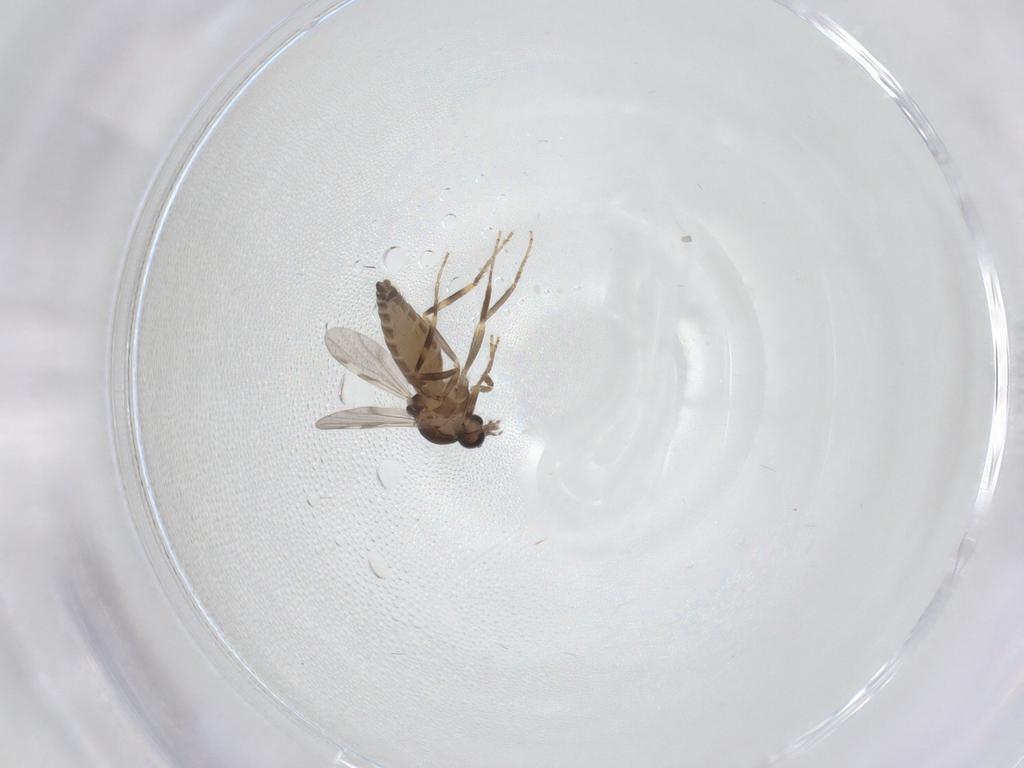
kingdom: Animalia
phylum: Arthropoda
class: Insecta
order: Diptera
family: Ceratopogonidae
